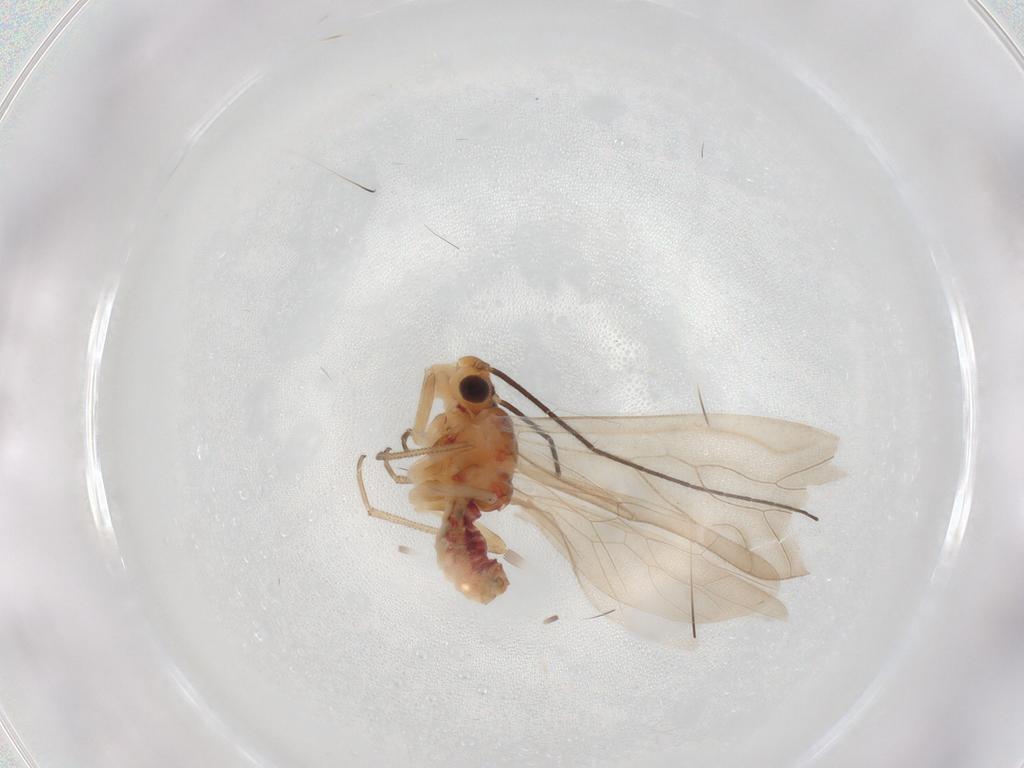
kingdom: Animalia
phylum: Arthropoda
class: Insecta
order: Psocodea
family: Caeciliusidae
